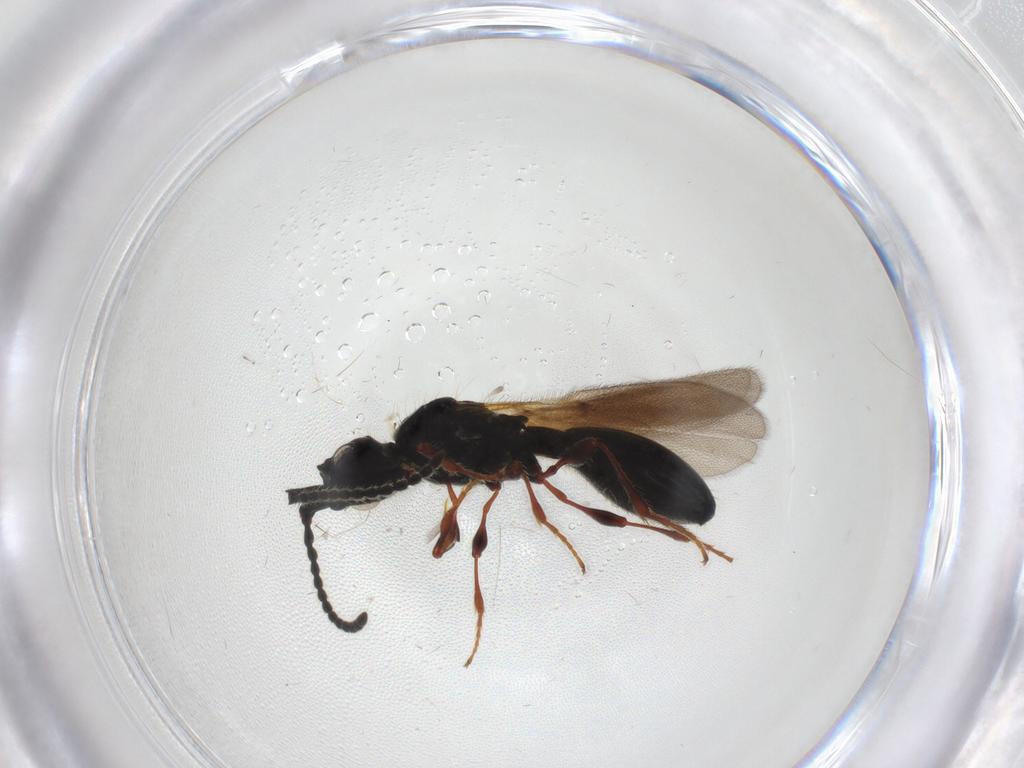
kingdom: Animalia
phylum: Arthropoda
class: Insecta
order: Hymenoptera
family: Diapriidae
